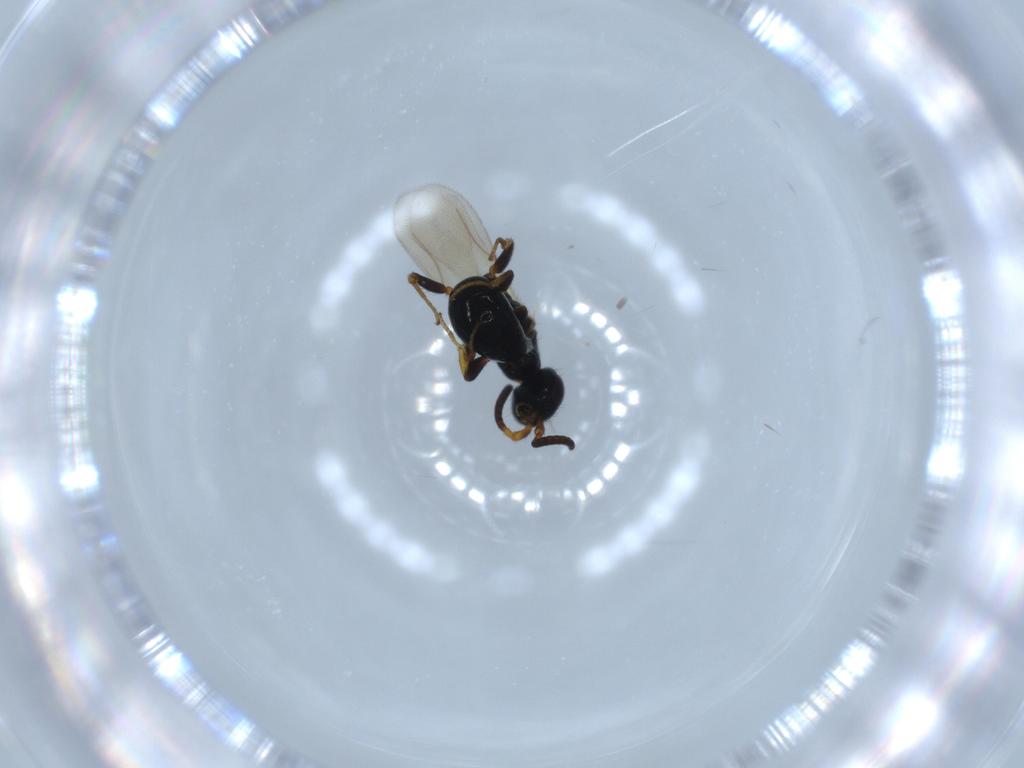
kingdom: Animalia
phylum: Arthropoda
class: Insecta
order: Hymenoptera
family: Bethylidae
